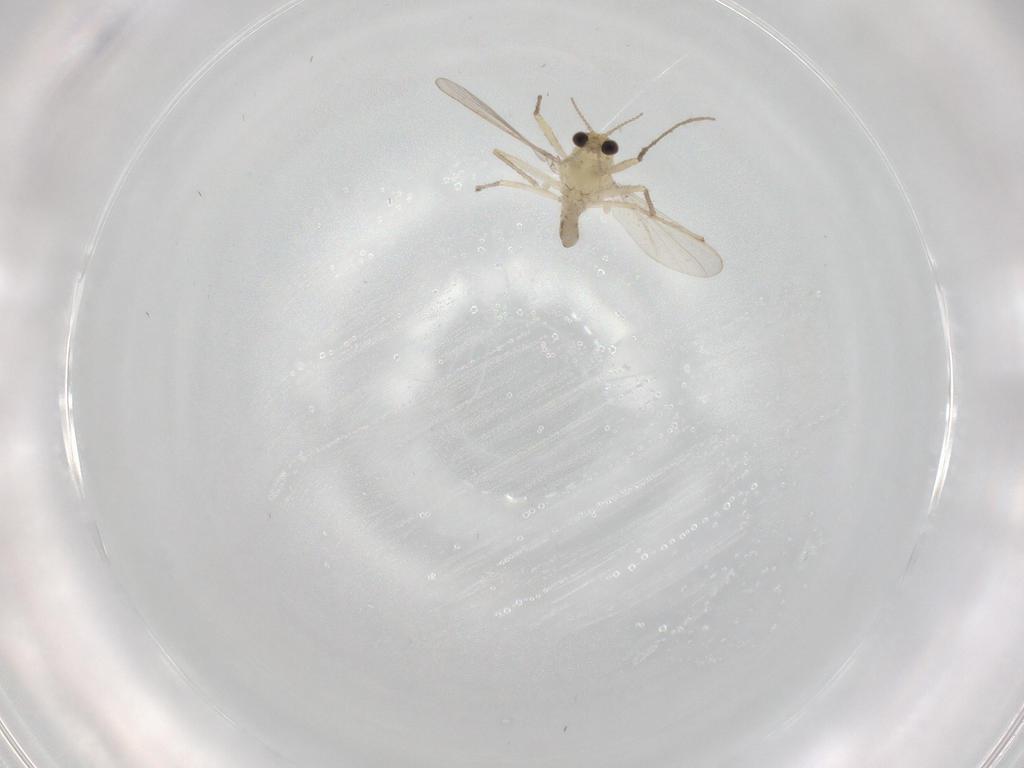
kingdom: Animalia
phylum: Arthropoda
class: Insecta
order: Diptera
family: Chironomidae
